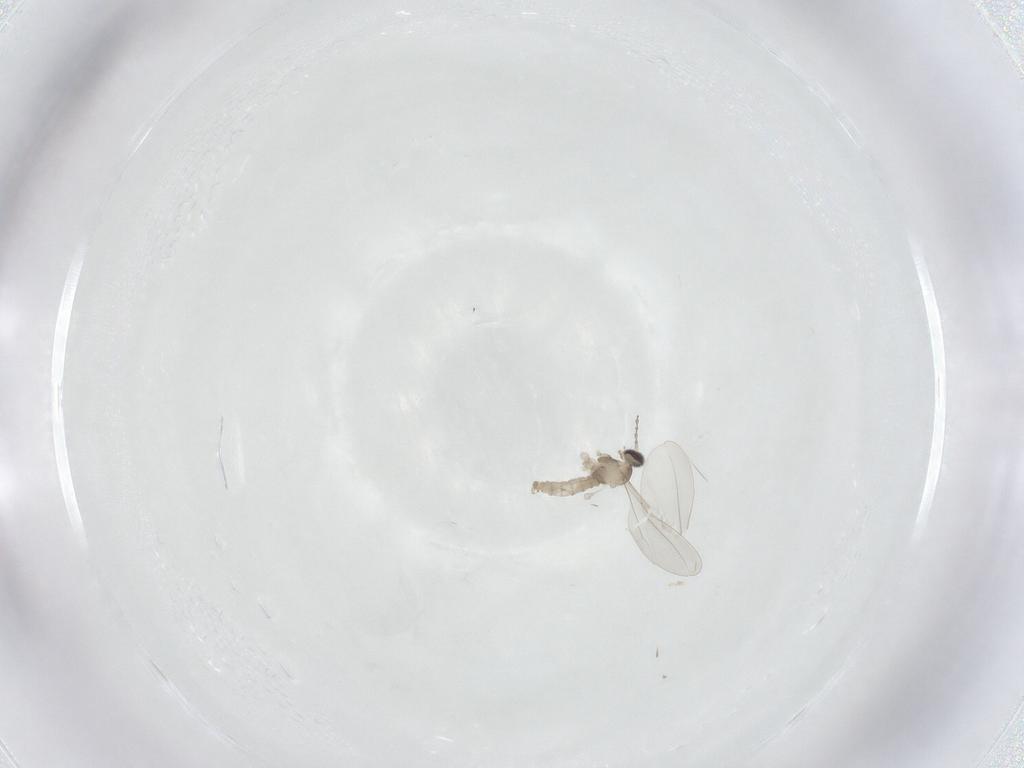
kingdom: Animalia
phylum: Arthropoda
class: Insecta
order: Diptera
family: Cecidomyiidae
